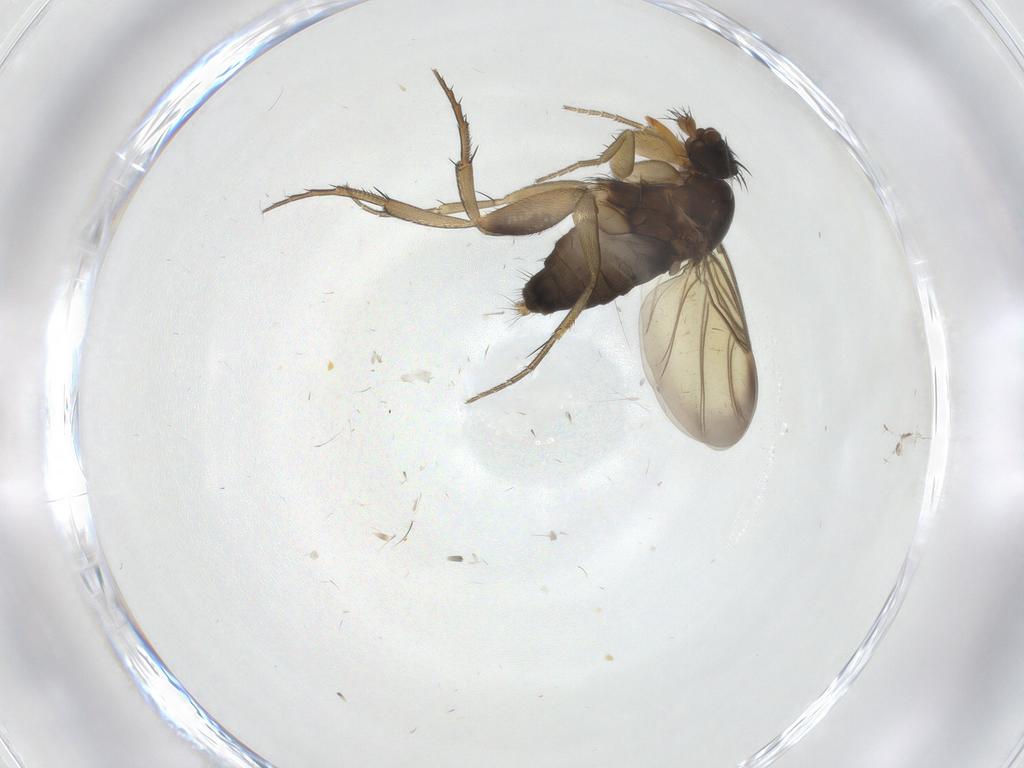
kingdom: Animalia
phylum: Arthropoda
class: Insecta
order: Diptera
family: Phoridae
